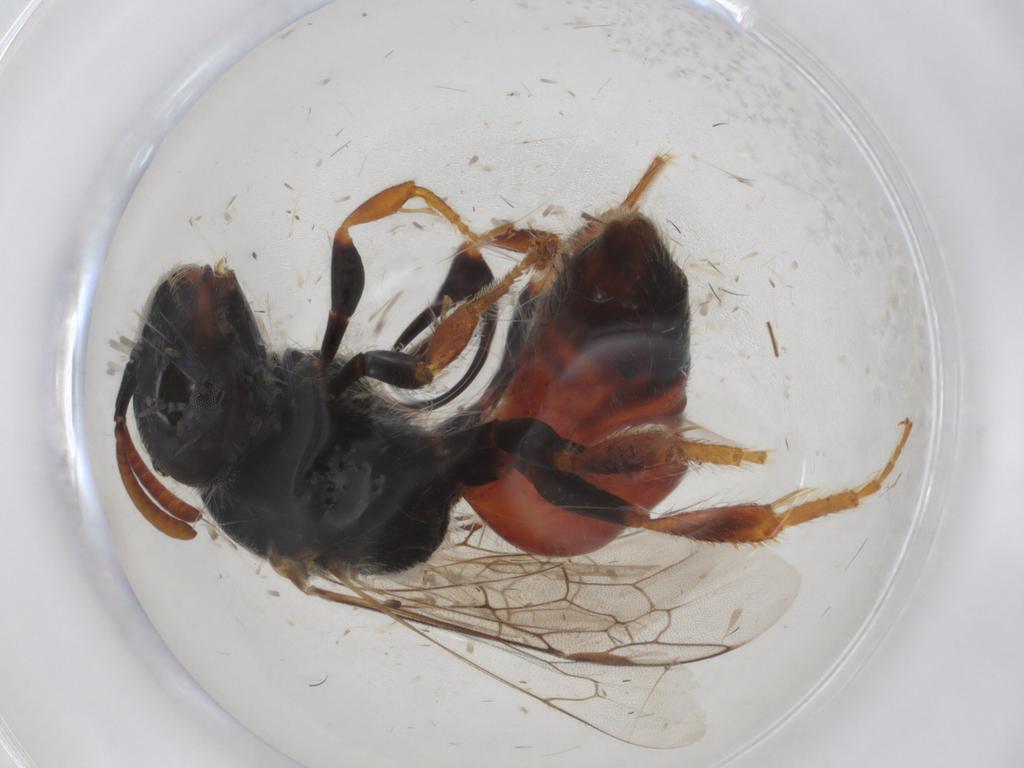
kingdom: Animalia
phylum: Arthropoda
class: Insecta
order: Hymenoptera
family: Halictidae
